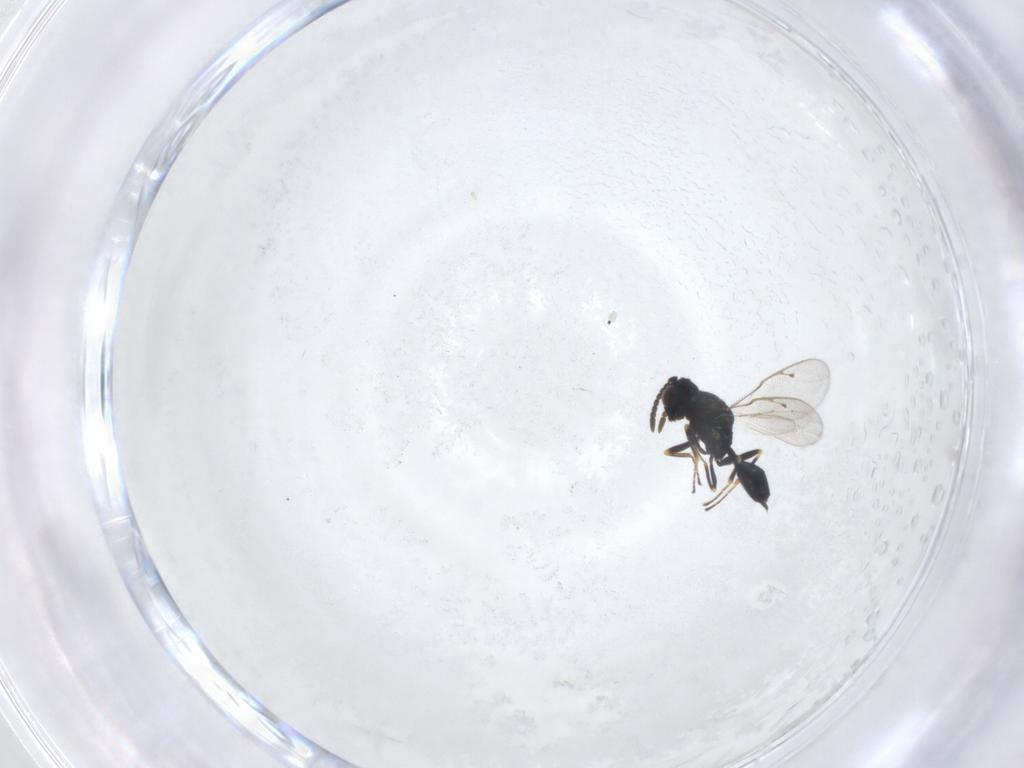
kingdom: Animalia
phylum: Arthropoda
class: Insecta
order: Hymenoptera
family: Pteromalidae
